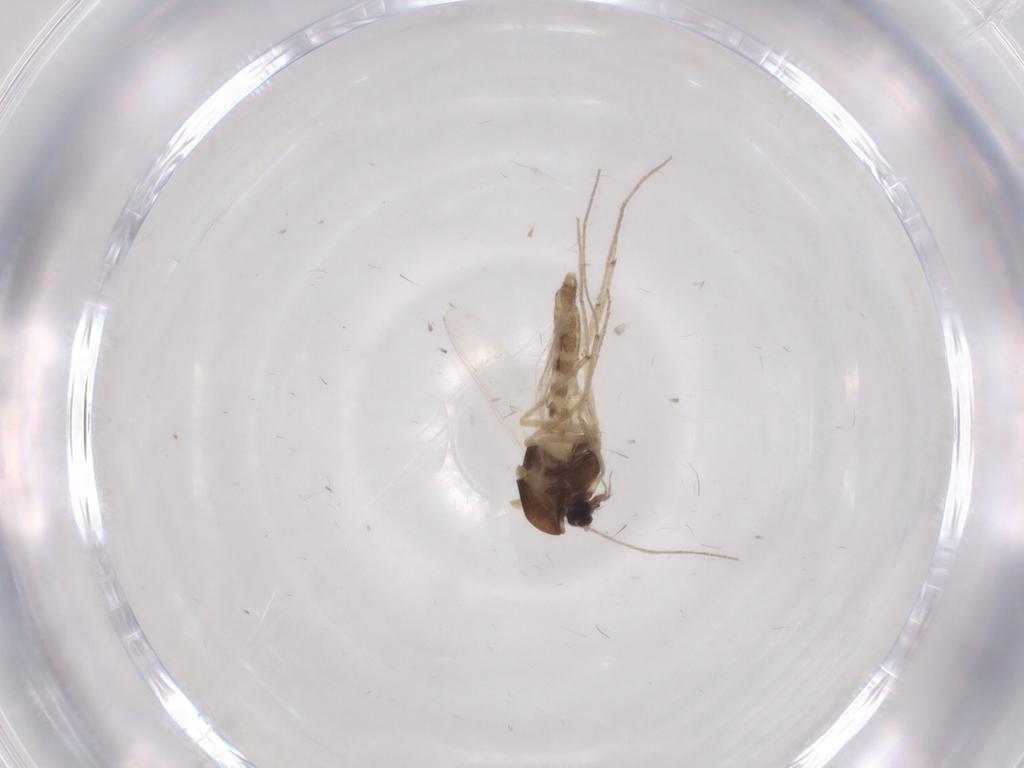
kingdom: Animalia
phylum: Arthropoda
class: Insecta
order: Diptera
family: Chironomidae
